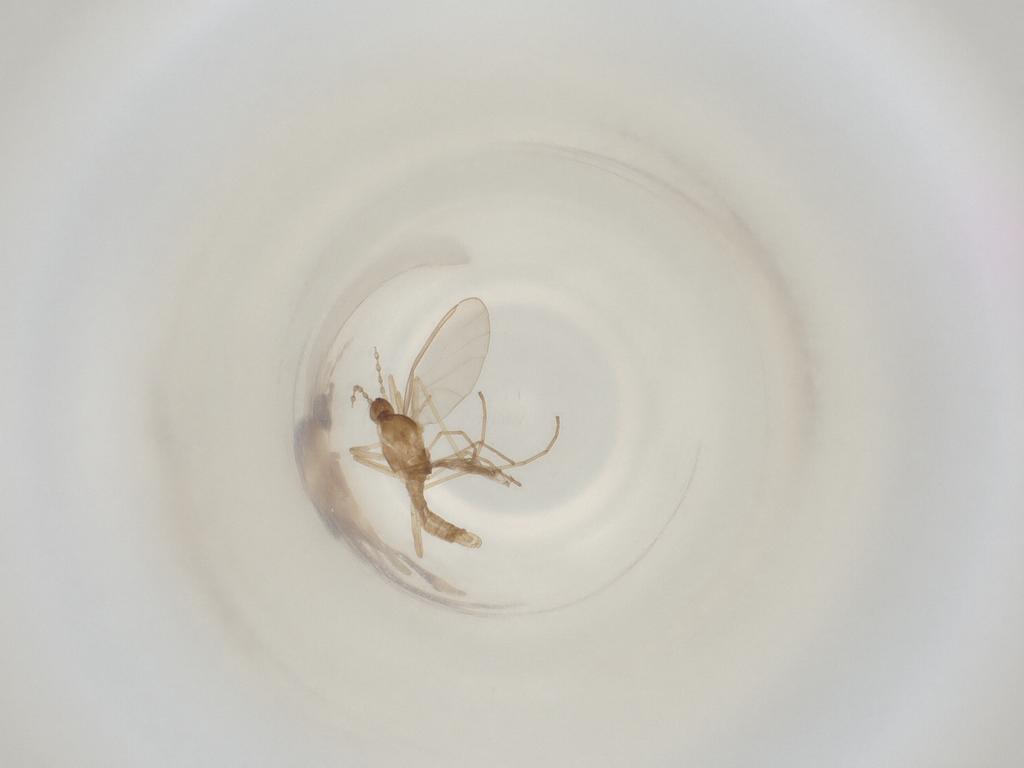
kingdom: Animalia
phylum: Arthropoda
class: Insecta
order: Diptera
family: Cecidomyiidae
